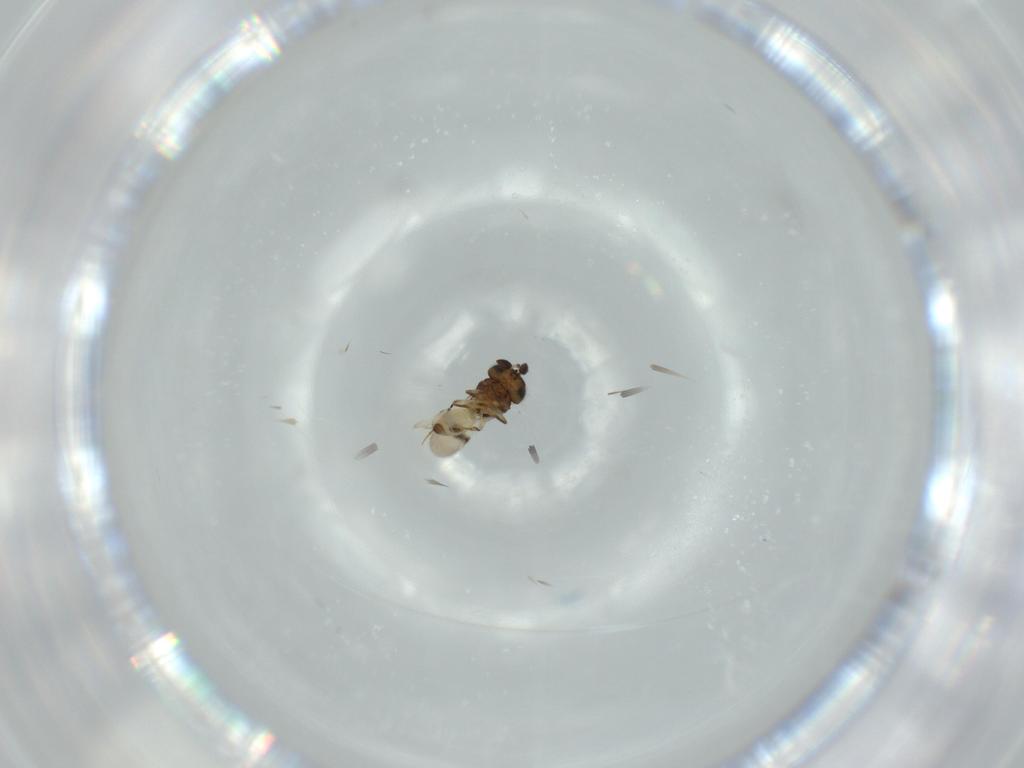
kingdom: Animalia
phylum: Arthropoda
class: Arachnida
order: Araneae
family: Pholcidae
